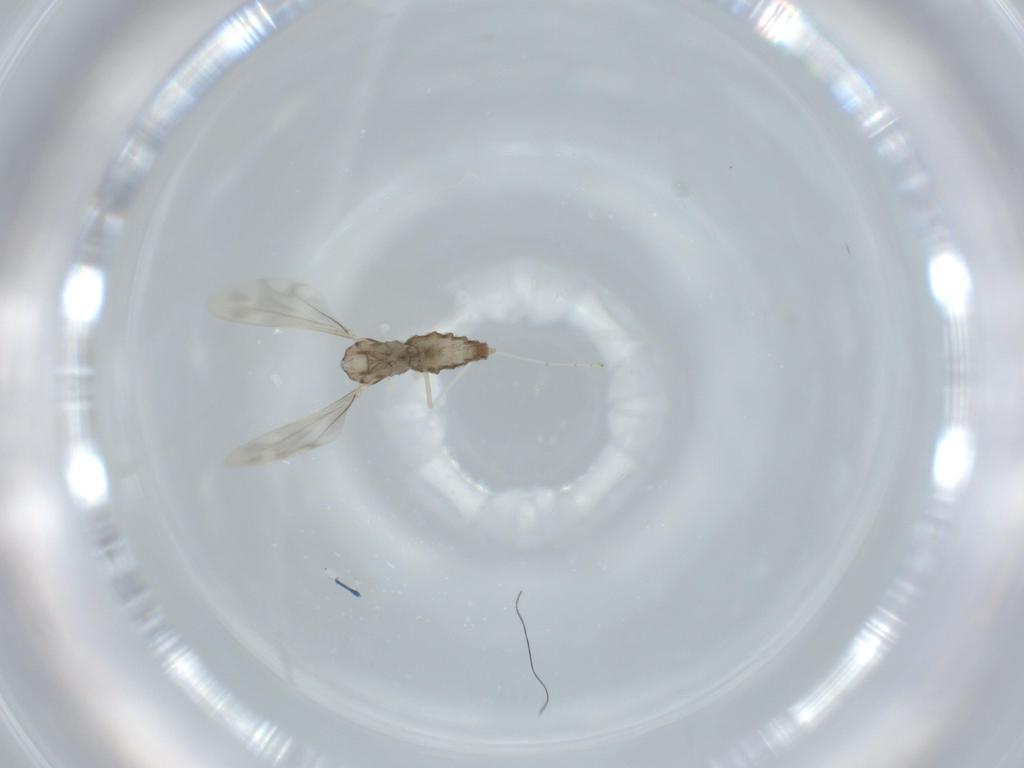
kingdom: Animalia
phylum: Arthropoda
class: Insecta
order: Diptera
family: Cecidomyiidae
